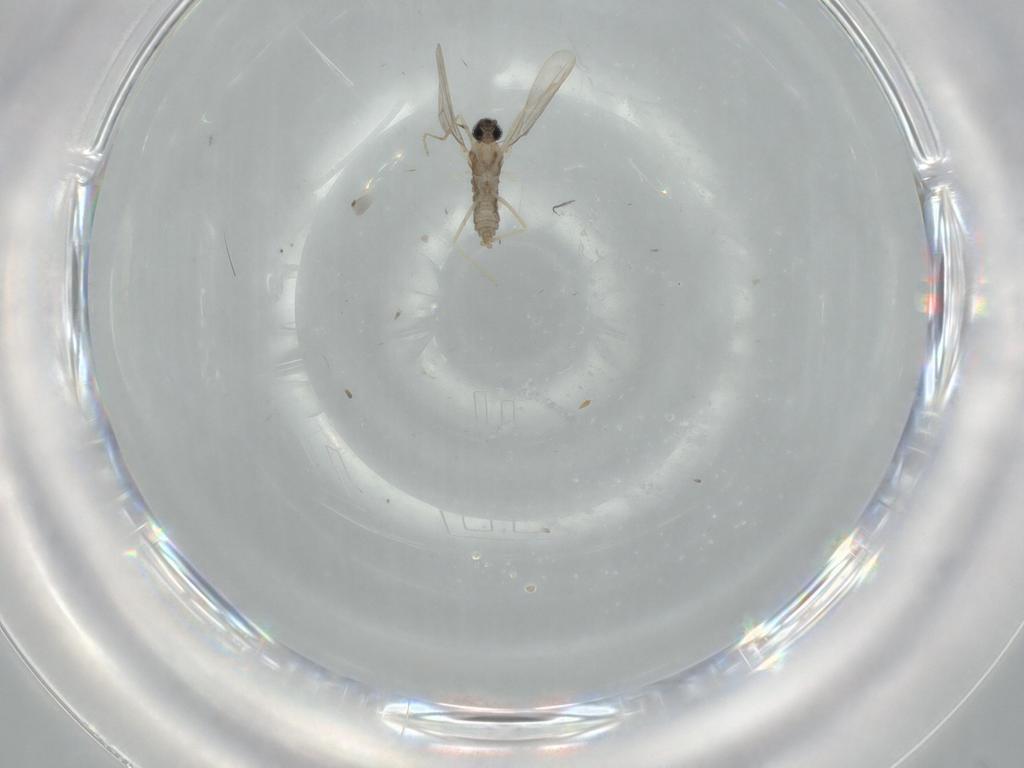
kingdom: Animalia
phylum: Arthropoda
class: Insecta
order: Diptera
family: Cecidomyiidae
